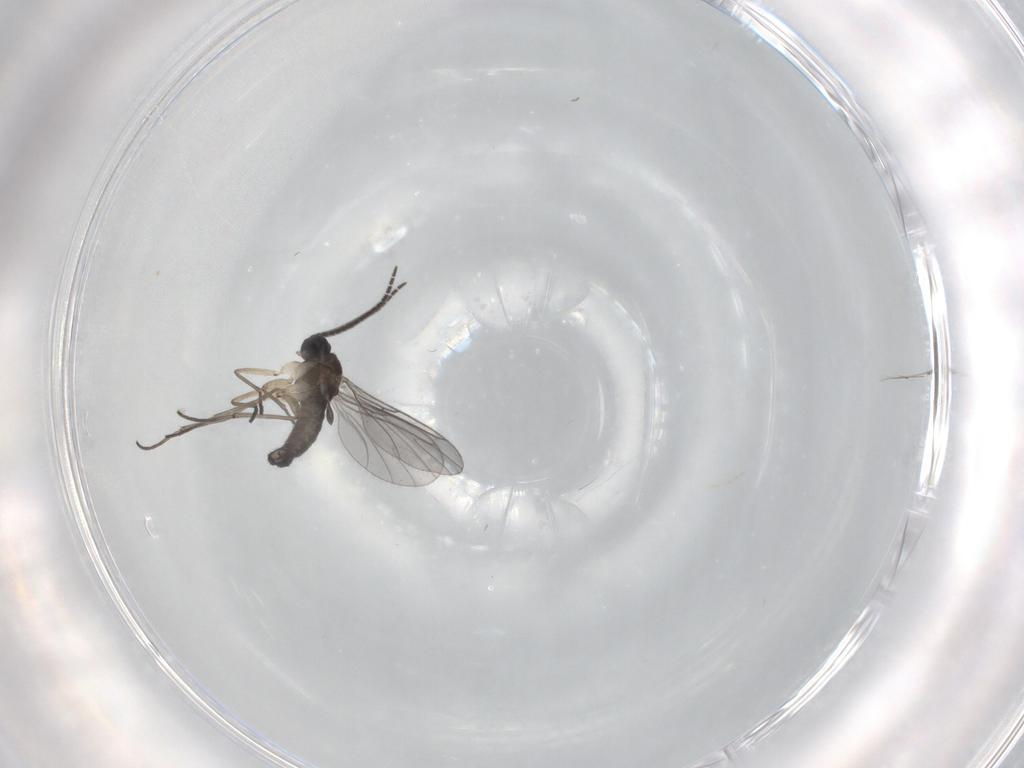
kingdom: Animalia
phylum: Arthropoda
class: Insecta
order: Diptera
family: Sciaridae
